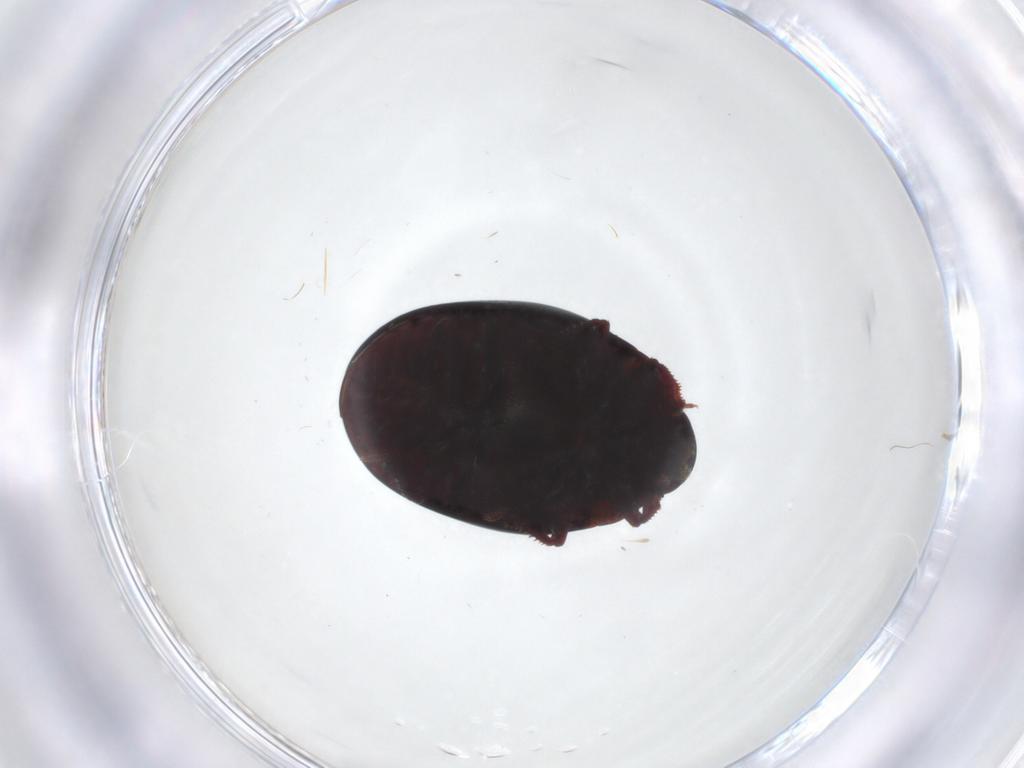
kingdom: Animalia
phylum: Arthropoda
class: Insecta
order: Coleoptera
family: Nosodendridae
